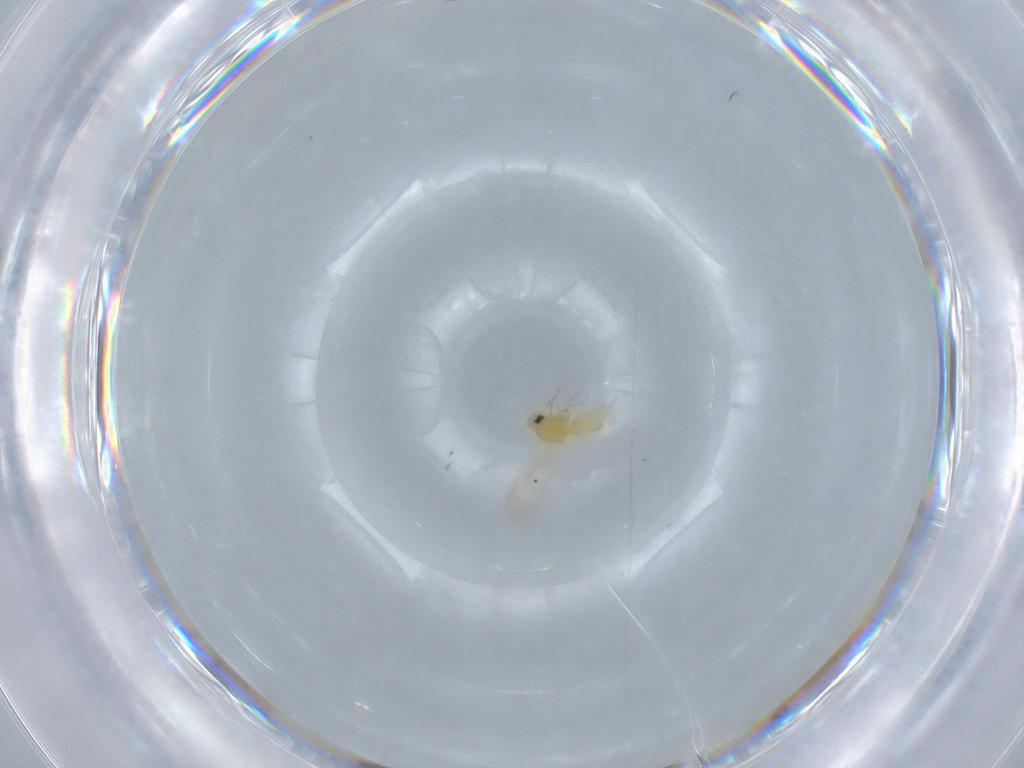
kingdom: Animalia
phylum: Arthropoda
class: Insecta
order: Hemiptera
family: Aleyrodidae
